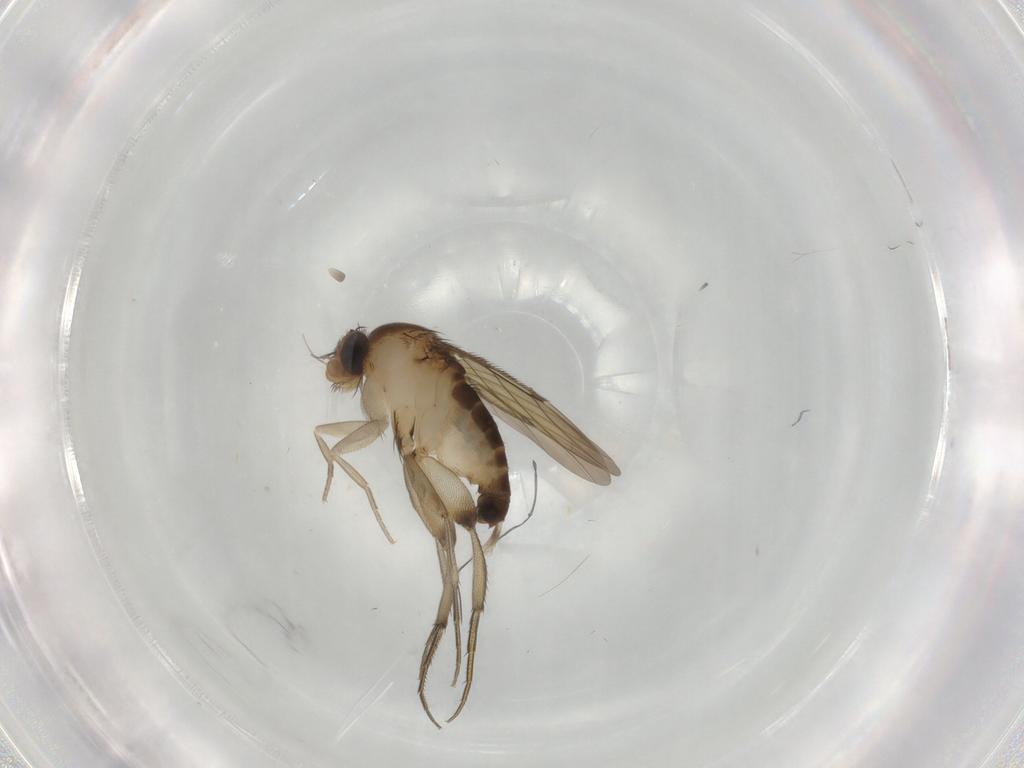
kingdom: Animalia
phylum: Arthropoda
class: Insecta
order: Diptera
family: Phoridae
